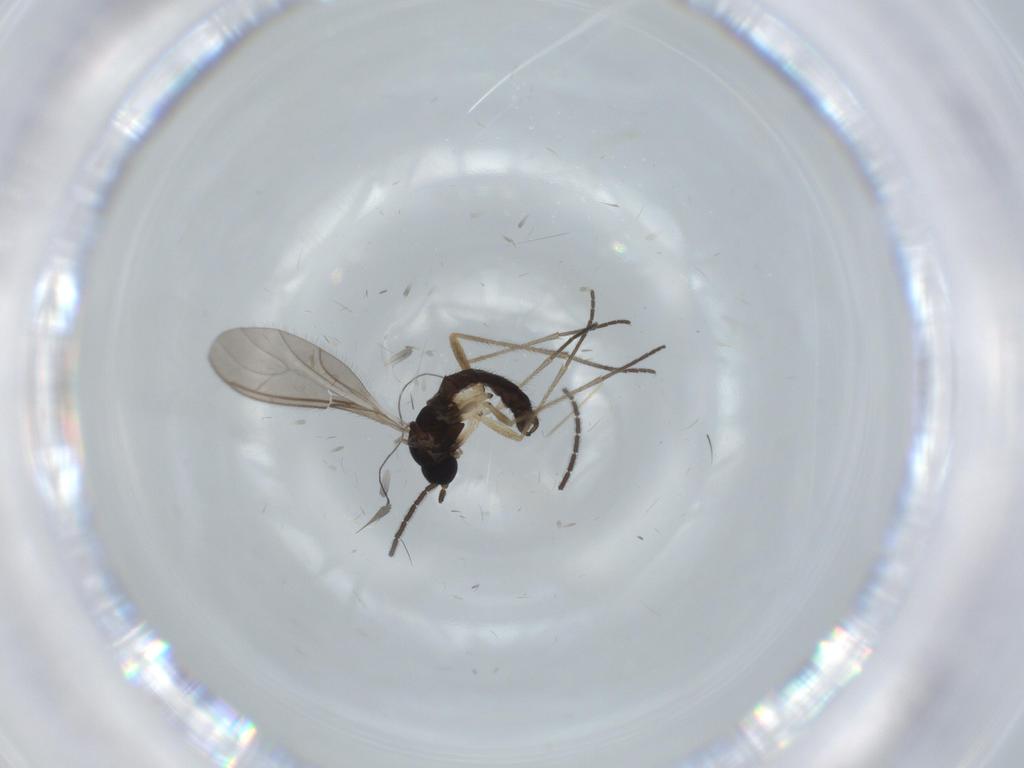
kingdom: Animalia
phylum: Arthropoda
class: Insecta
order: Diptera
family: Sciaridae
